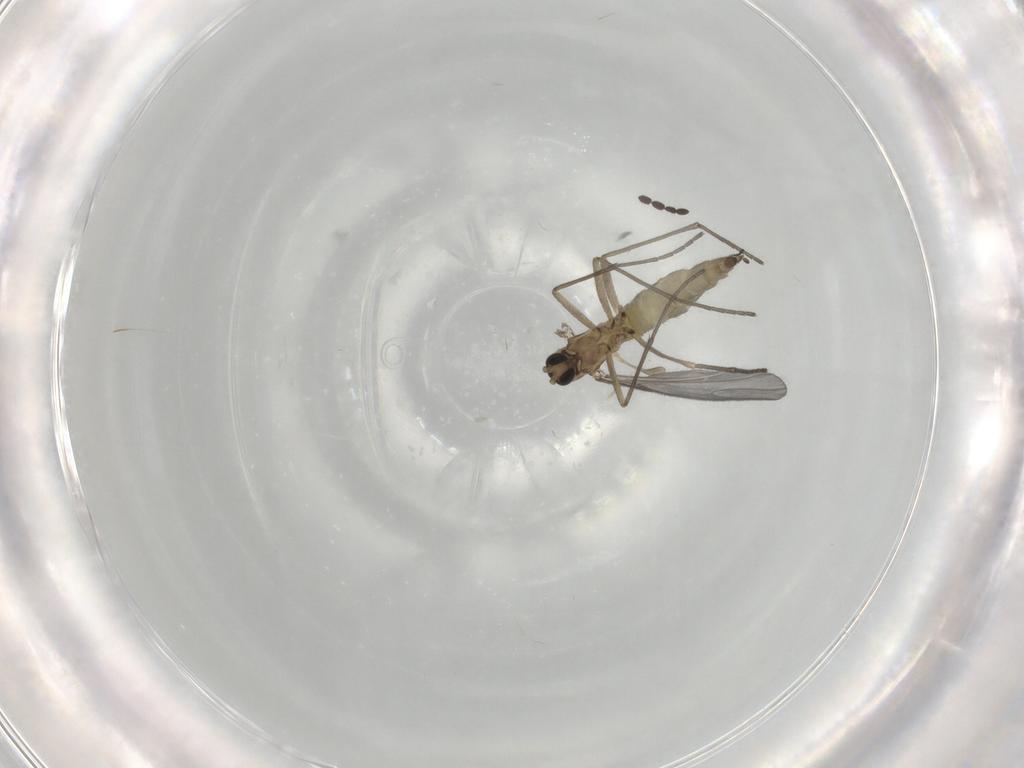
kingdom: Animalia
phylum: Arthropoda
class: Insecta
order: Diptera
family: Sciaridae
